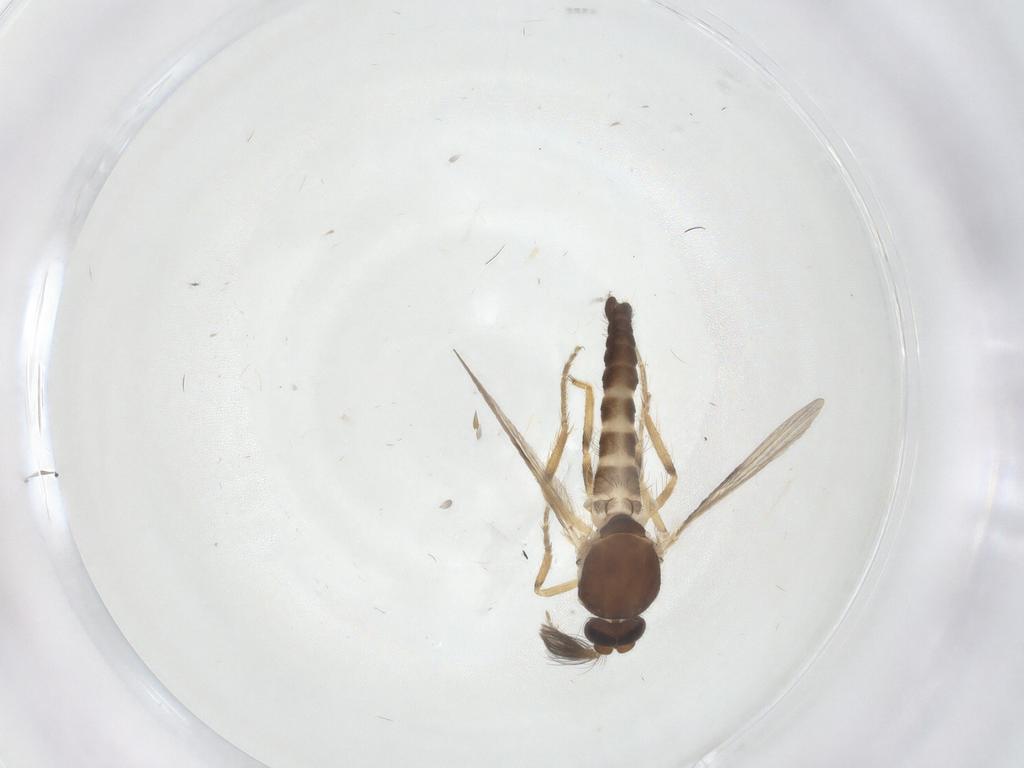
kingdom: Animalia
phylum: Arthropoda
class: Insecta
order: Diptera
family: Ceratopogonidae
